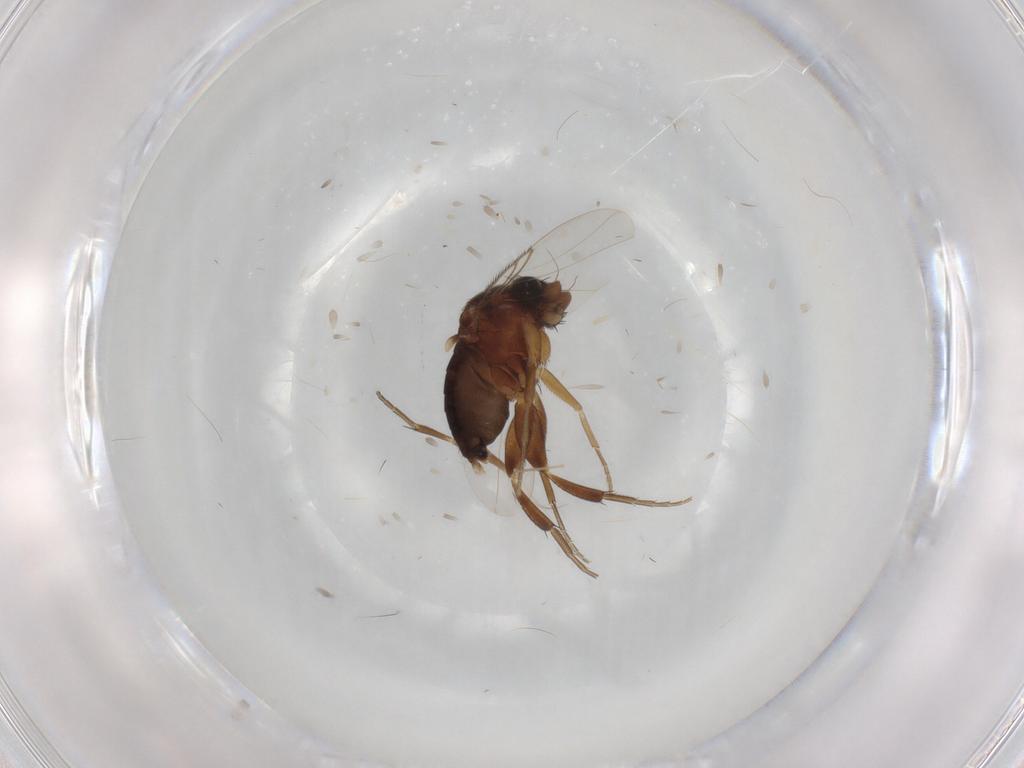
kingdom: Animalia
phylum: Arthropoda
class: Insecta
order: Diptera
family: Phoridae
